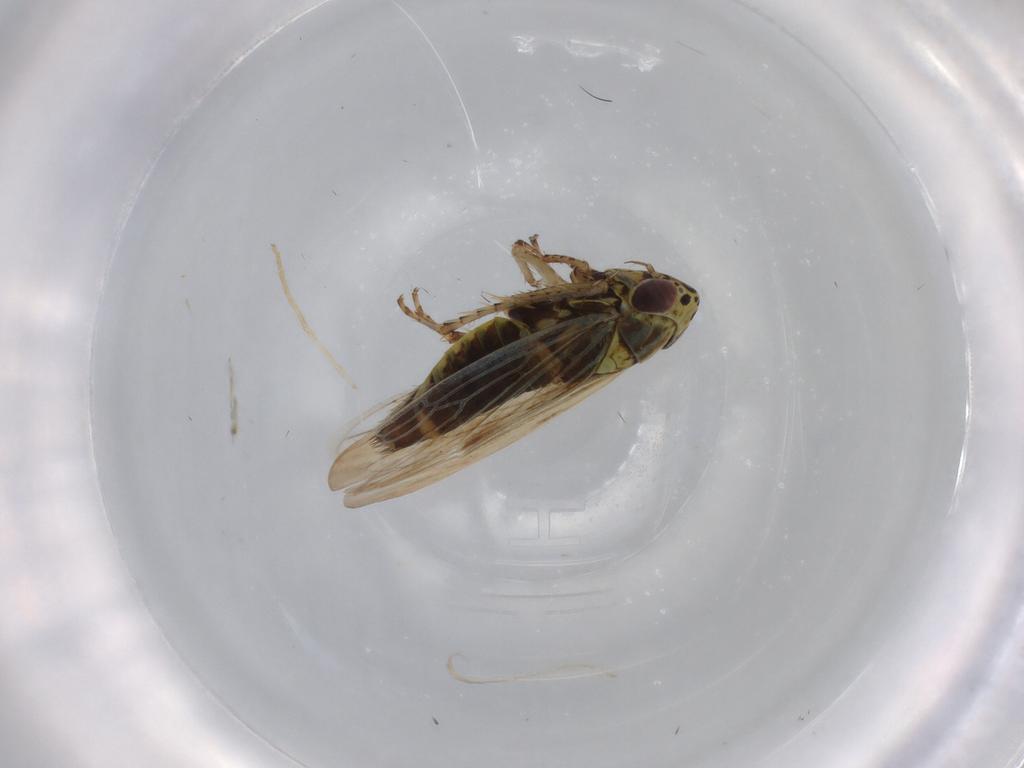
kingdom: Animalia
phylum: Arthropoda
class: Insecta
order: Hemiptera
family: Cicadellidae
